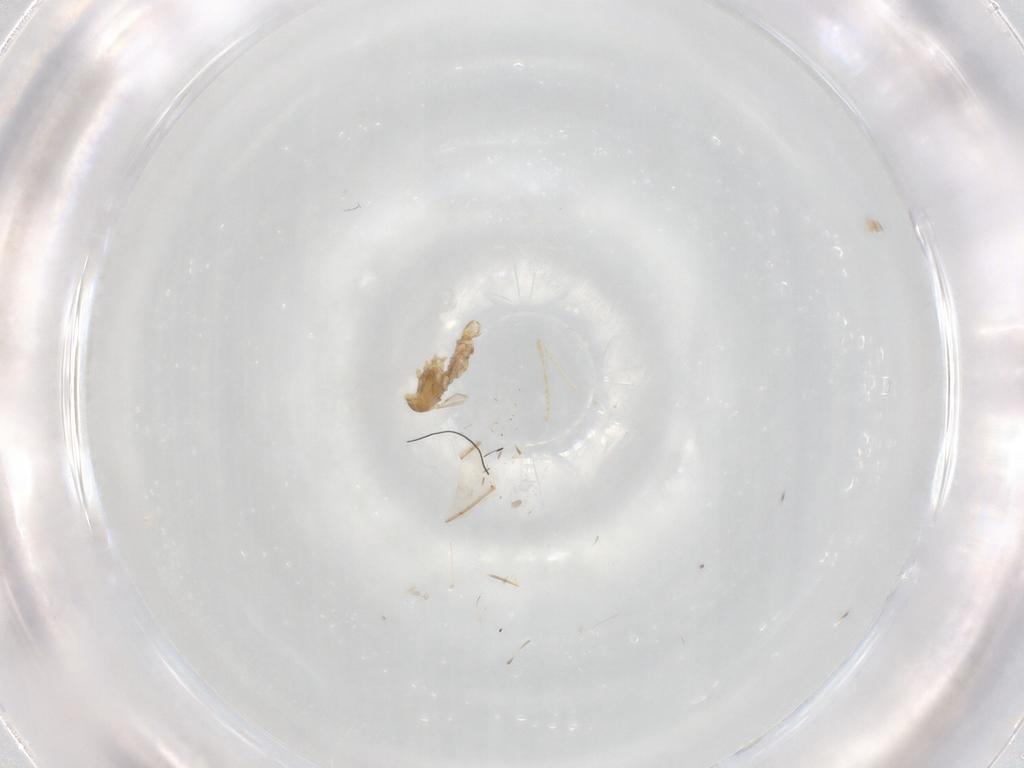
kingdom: Animalia
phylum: Arthropoda
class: Insecta
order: Diptera
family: Cecidomyiidae
